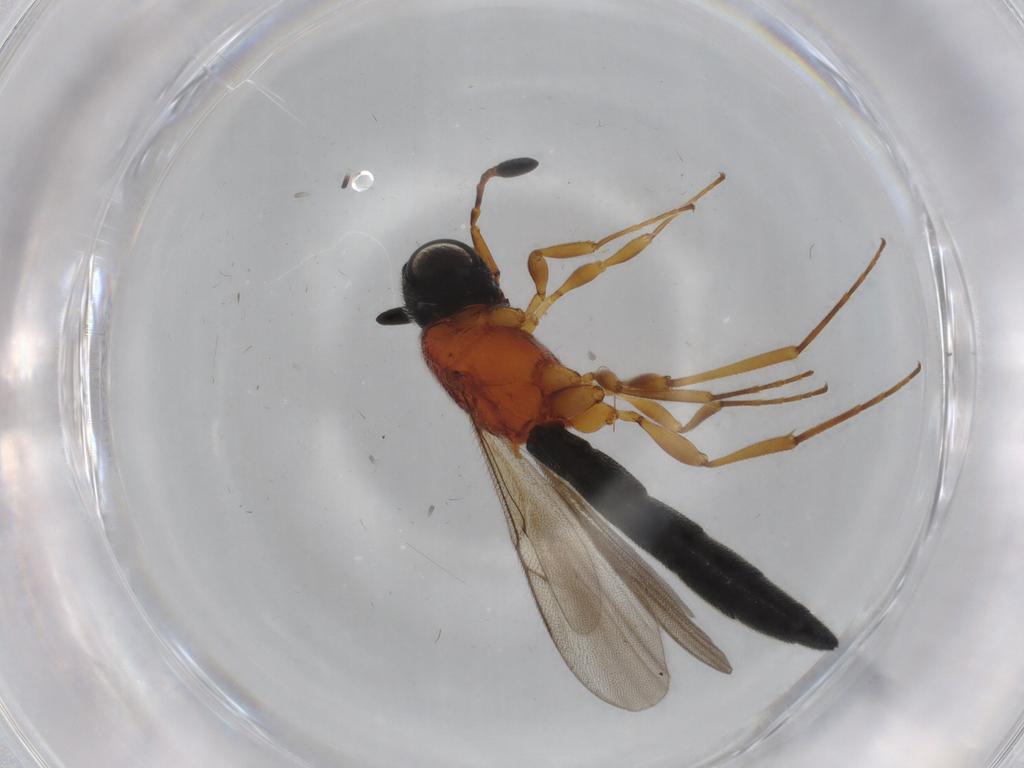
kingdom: Animalia
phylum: Arthropoda
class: Insecta
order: Hymenoptera
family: Scelionidae
